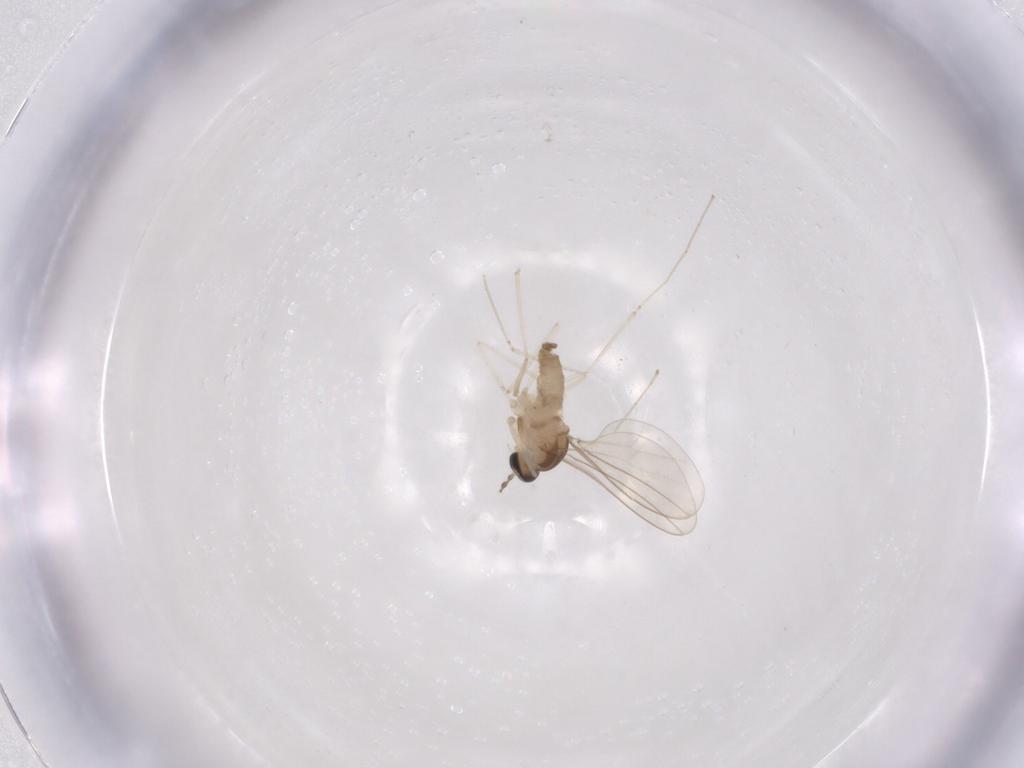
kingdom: Animalia
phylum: Arthropoda
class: Insecta
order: Diptera
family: Cecidomyiidae
